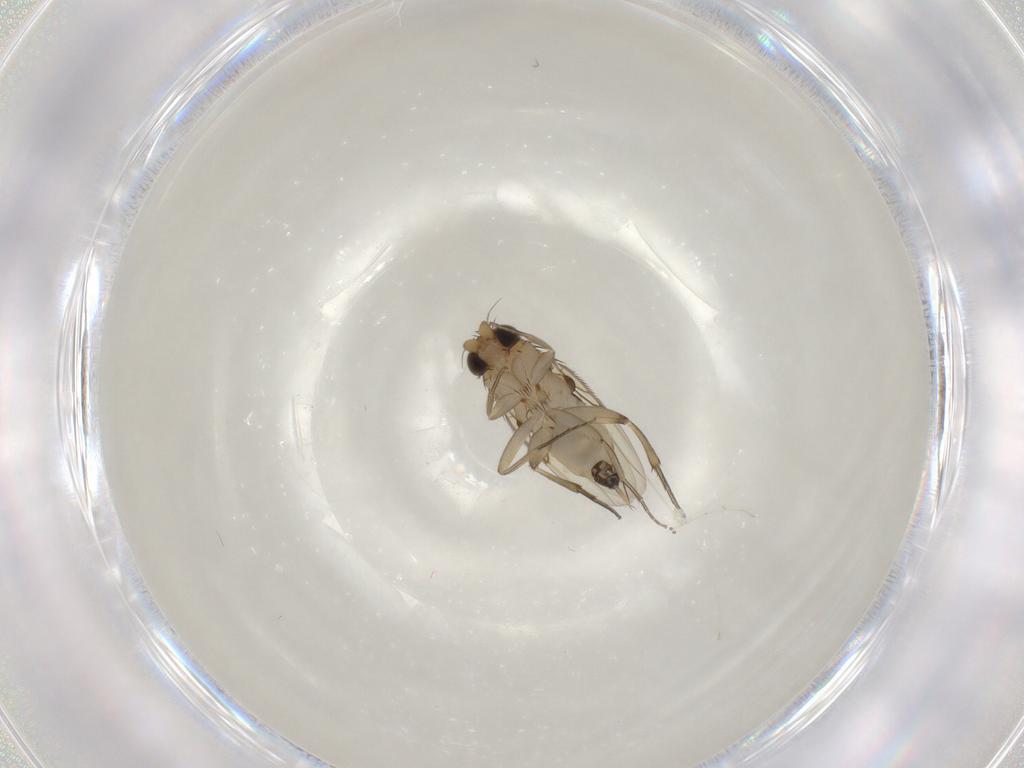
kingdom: Animalia
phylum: Arthropoda
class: Insecta
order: Diptera
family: Phoridae
